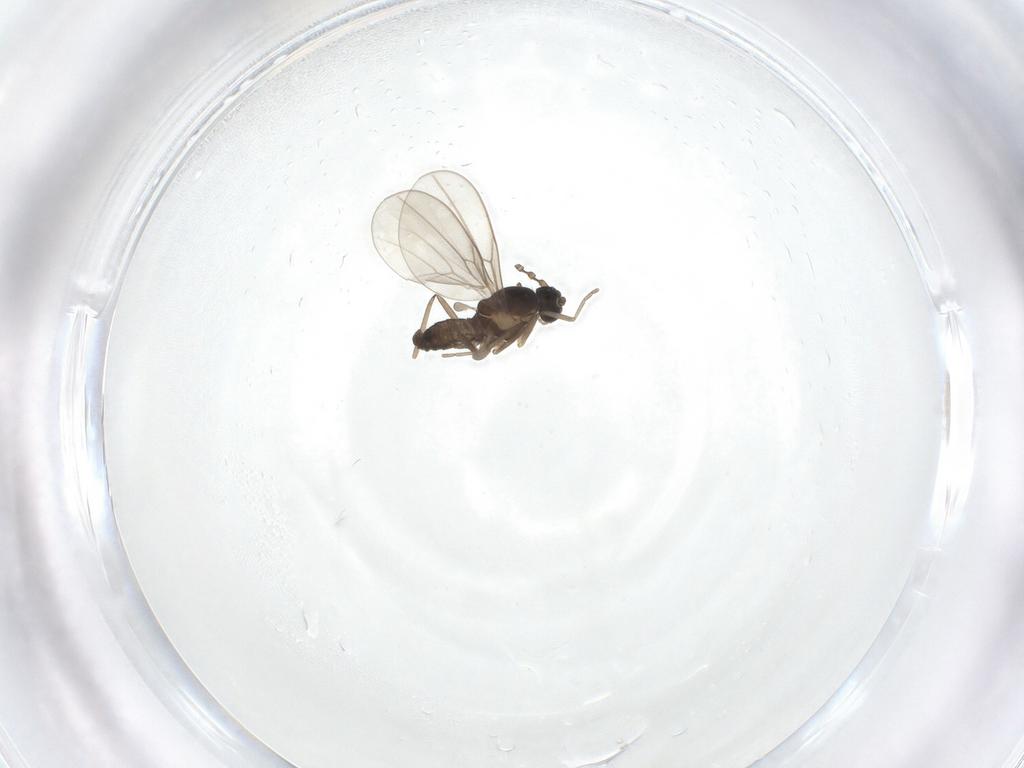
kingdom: Animalia
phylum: Arthropoda
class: Insecta
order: Diptera
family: Cecidomyiidae
